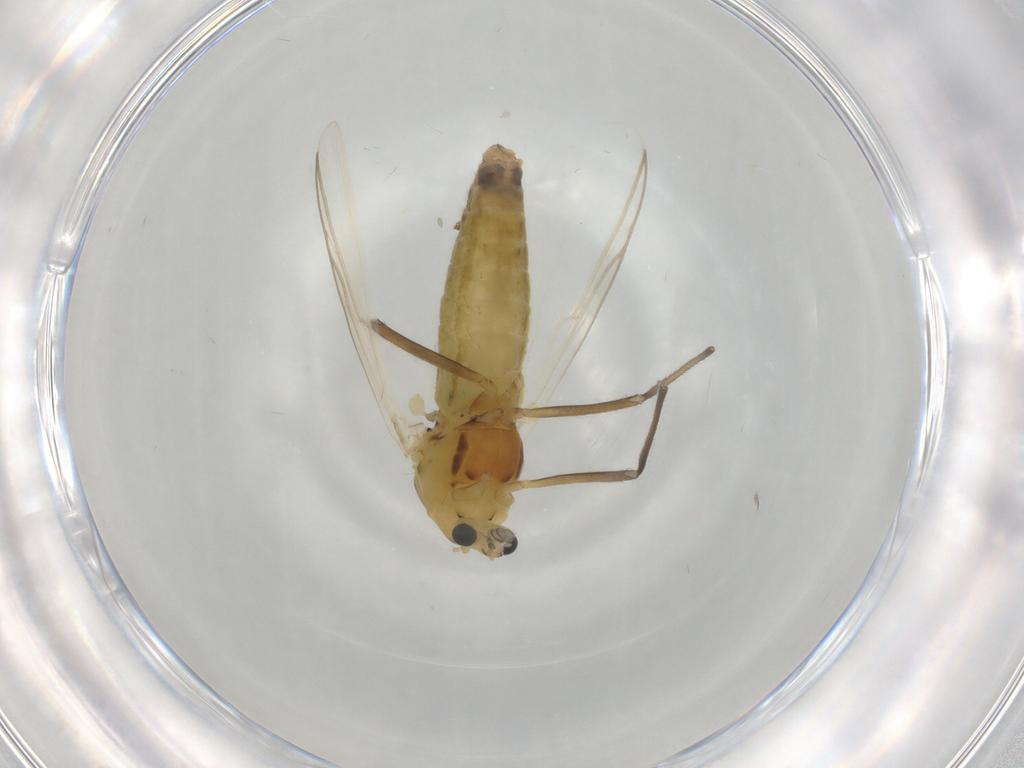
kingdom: Animalia
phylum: Arthropoda
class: Insecta
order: Diptera
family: Chironomidae
